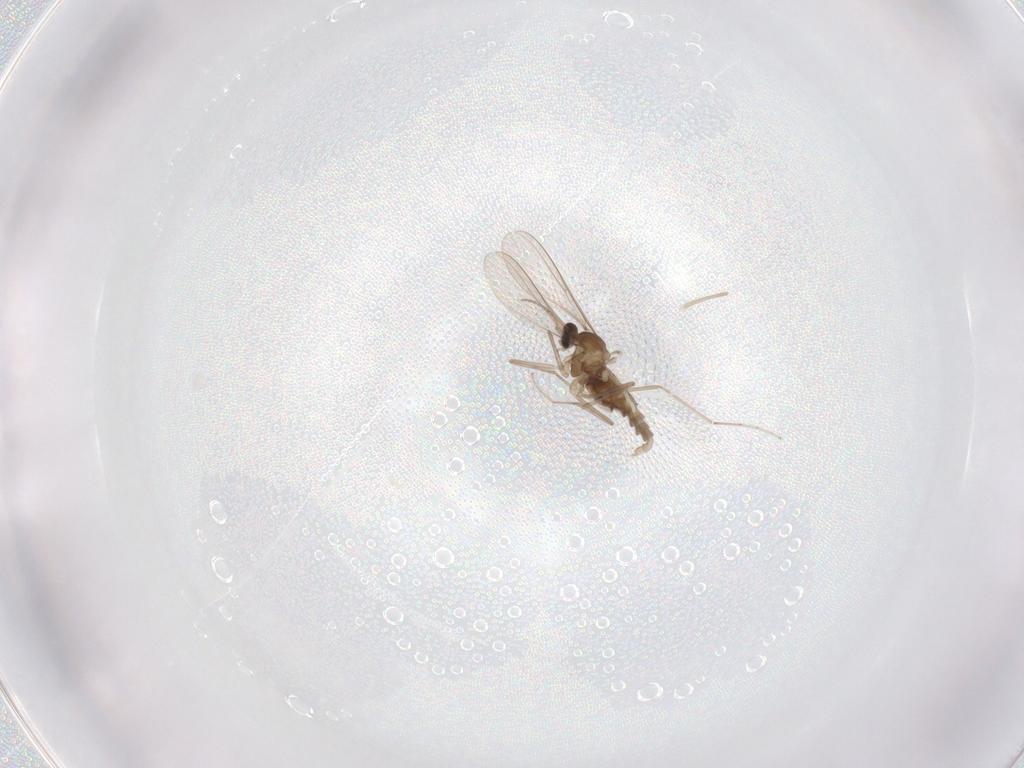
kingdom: Animalia
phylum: Arthropoda
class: Insecta
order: Diptera
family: Cecidomyiidae
